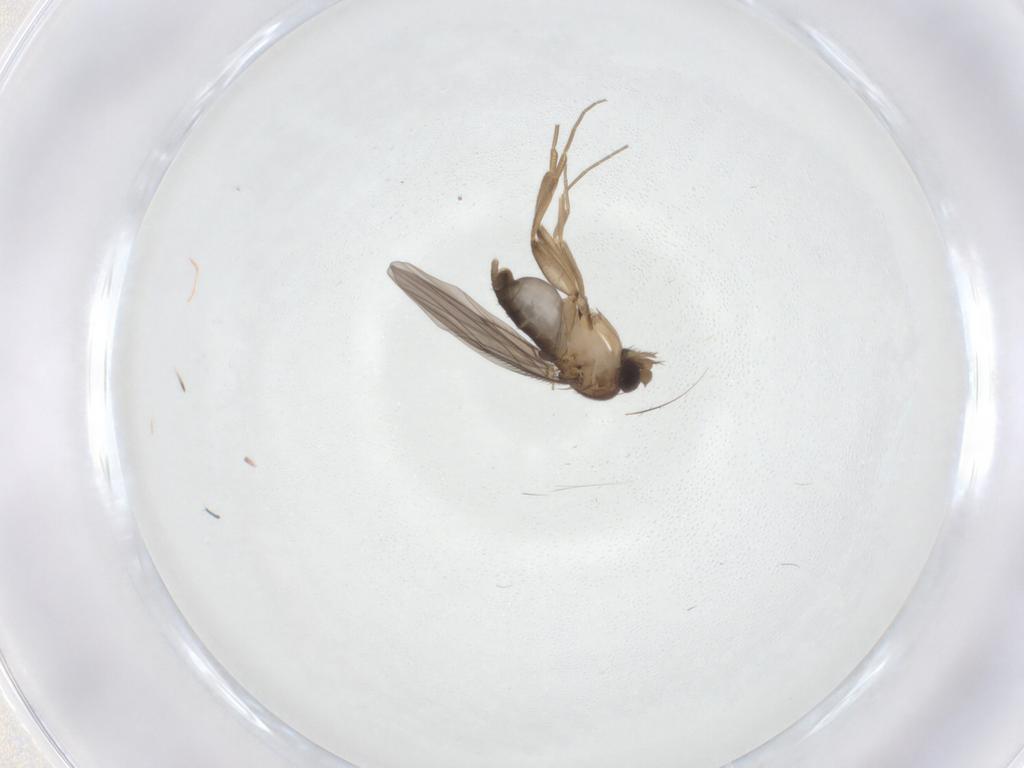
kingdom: Animalia
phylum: Arthropoda
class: Insecta
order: Diptera
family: Phoridae
